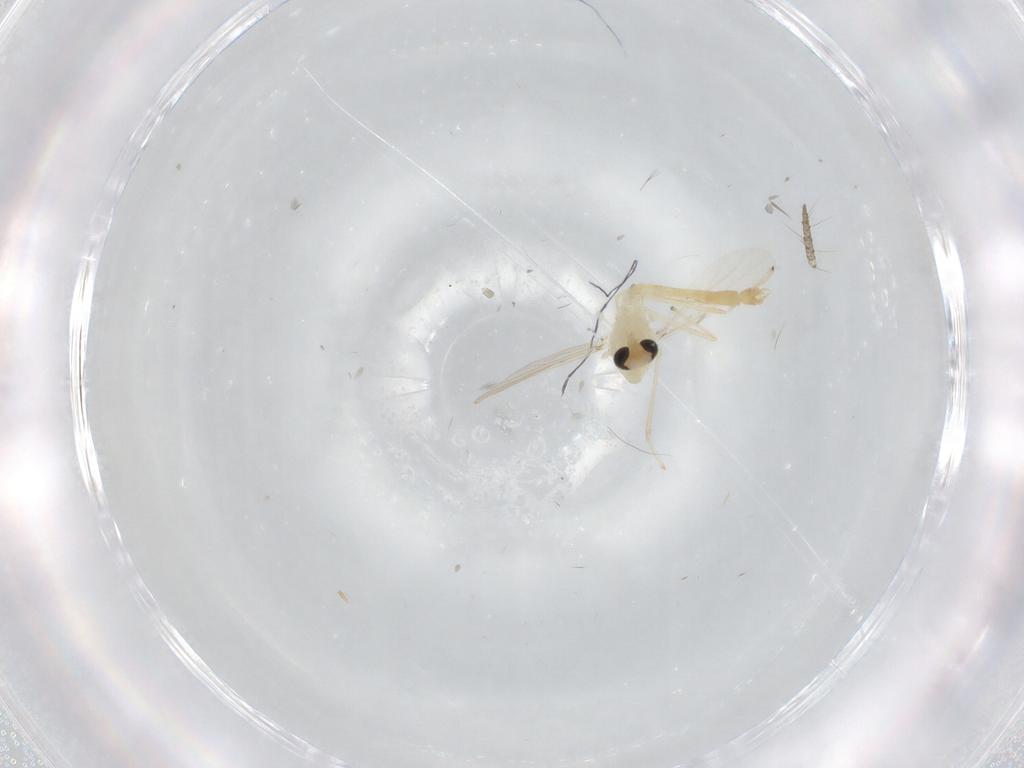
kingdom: Animalia
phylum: Arthropoda
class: Insecta
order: Diptera
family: Chironomidae
